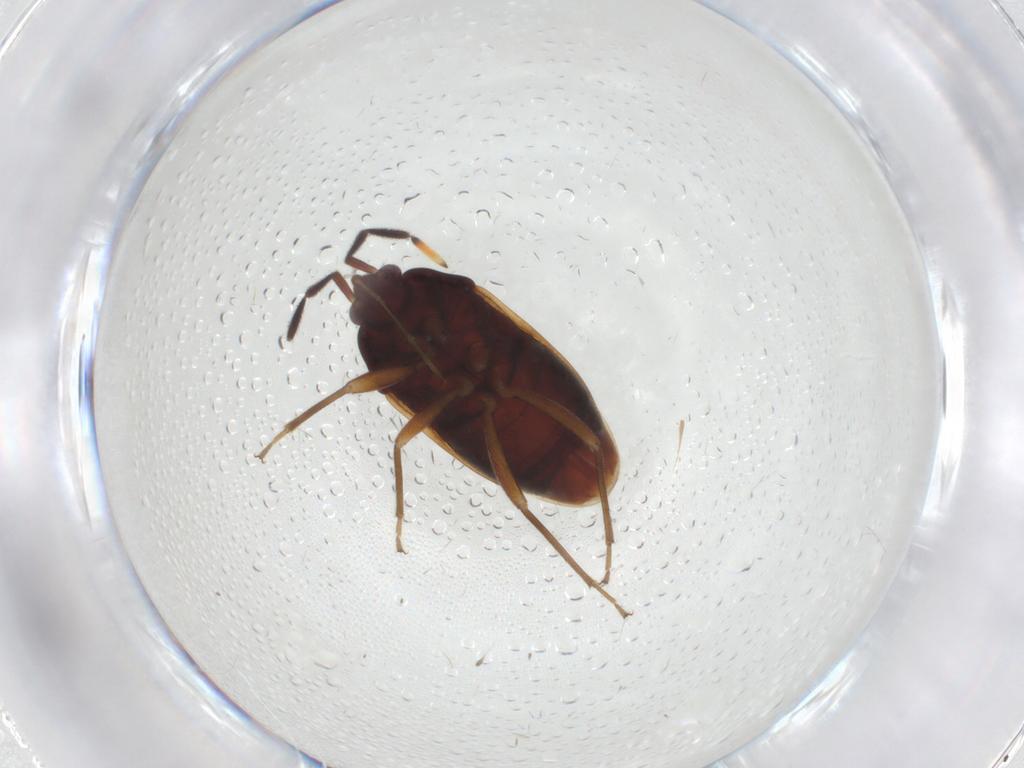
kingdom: Animalia
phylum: Arthropoda
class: Insecta
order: Hemiptera
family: Rhyparochromidae
